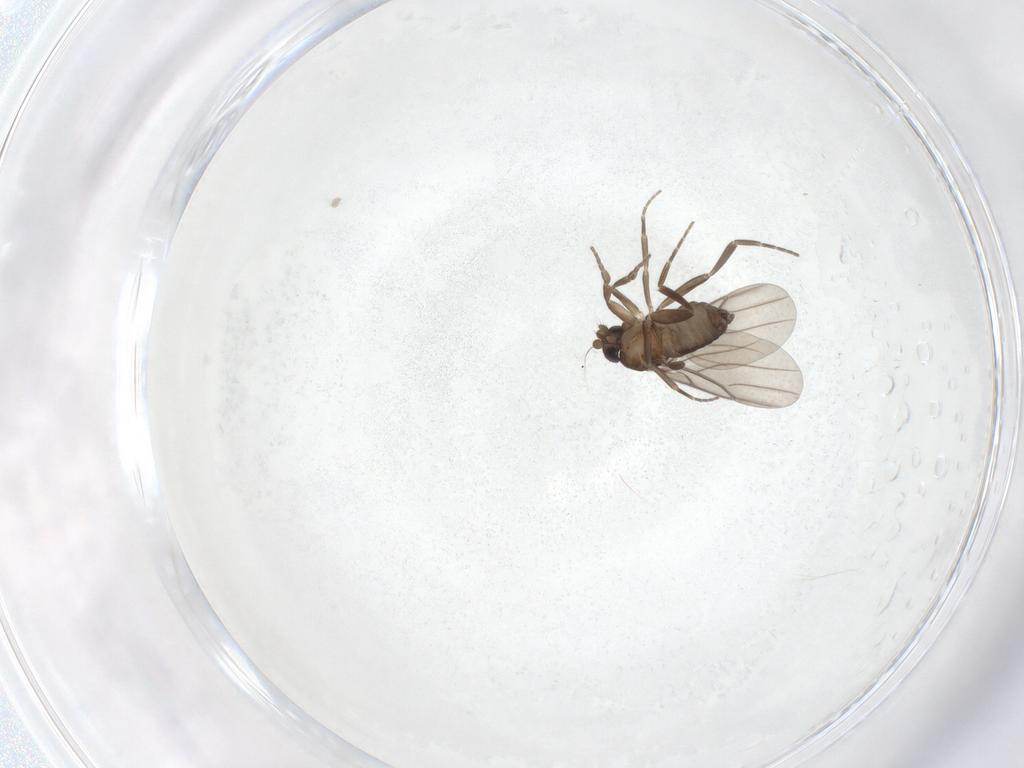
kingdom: Animalia
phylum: Arthropoda
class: Insecta
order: Diptera
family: Cecidomyiidae
